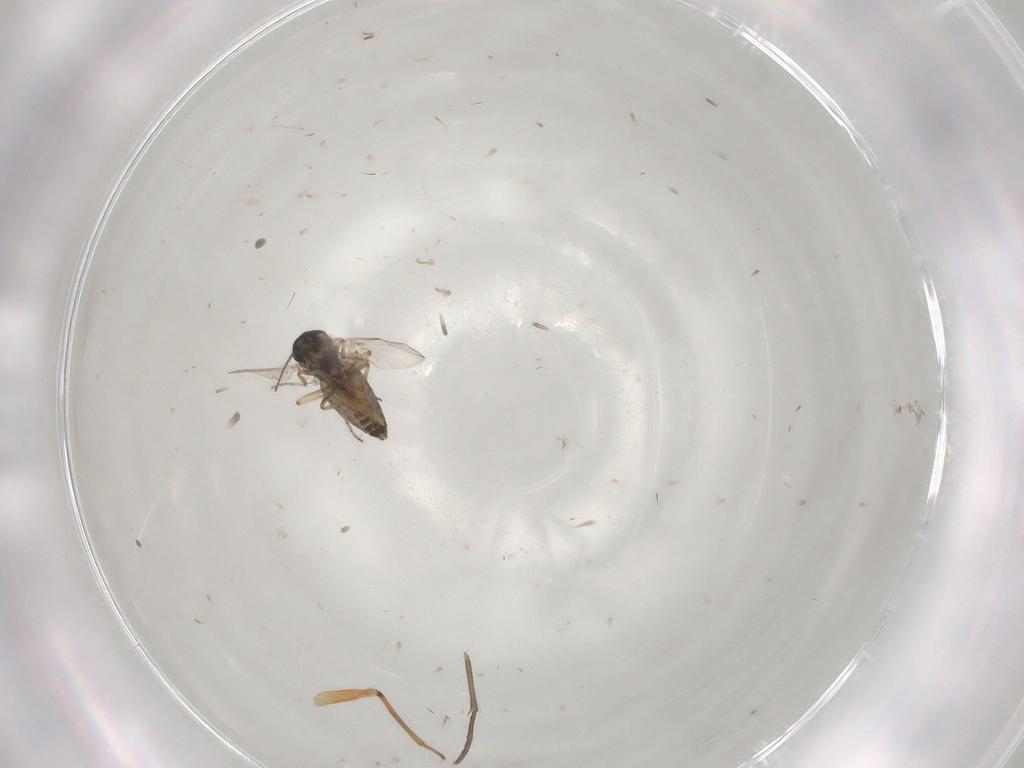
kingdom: Animalia
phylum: Arthropoda
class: Insecta
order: Diptera
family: Ceratopogonidae
